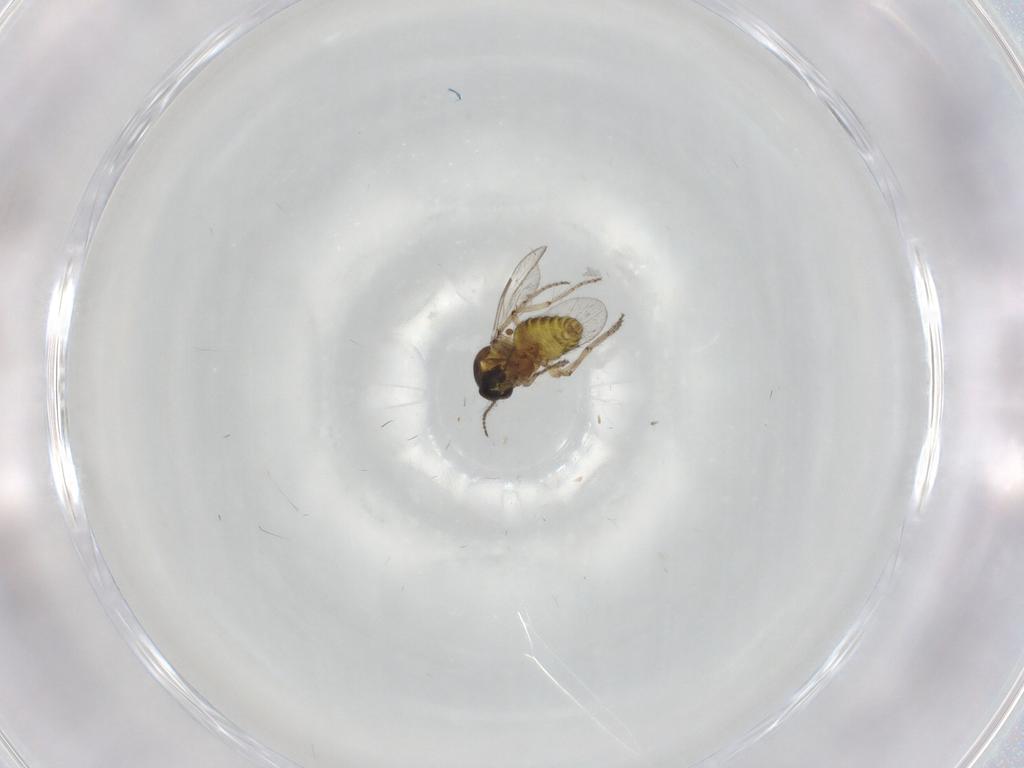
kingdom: Animalia
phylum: Arthropoda
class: Insecta
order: Diptera
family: Ceratopogonidae
